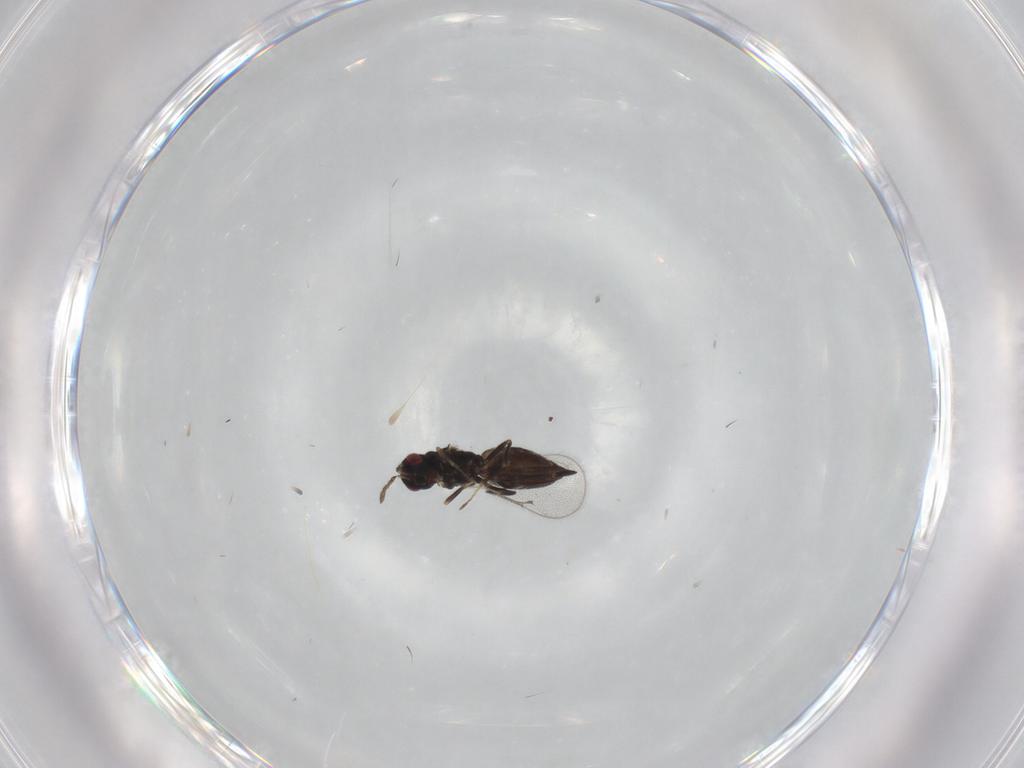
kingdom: Animalia
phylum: Arthropoda
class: Insecta
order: Hymenoptera
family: Eulophidae
